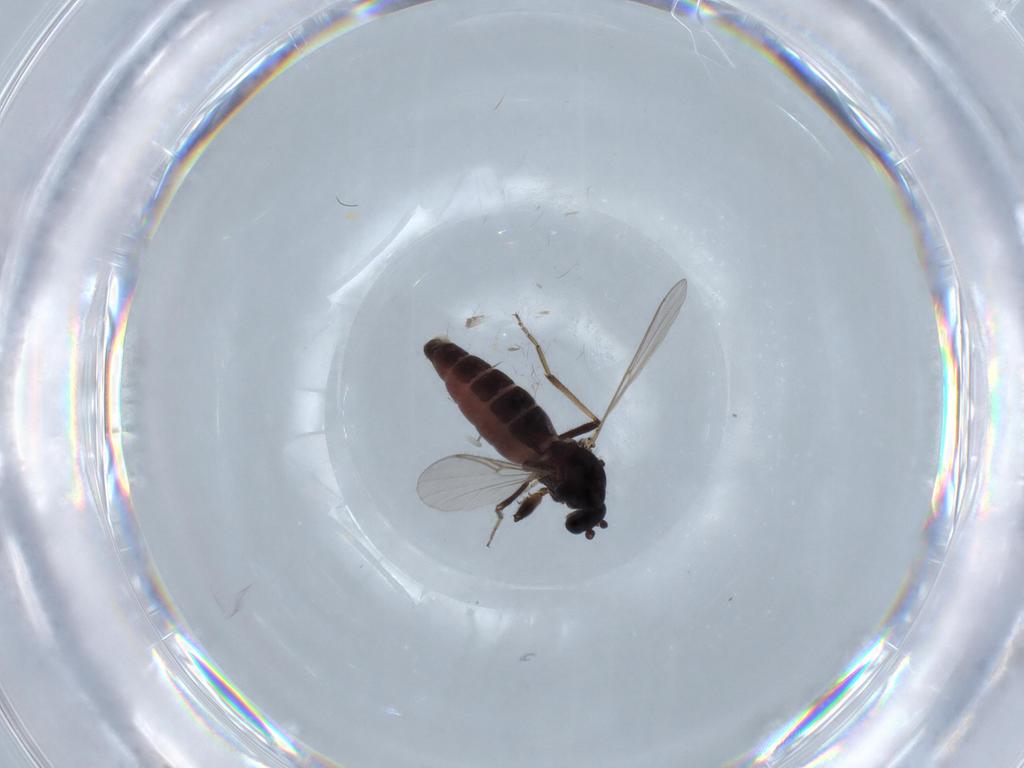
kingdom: Animalia
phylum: Arthropoda
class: Insecta
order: Diptera
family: Ceratopogonidae
